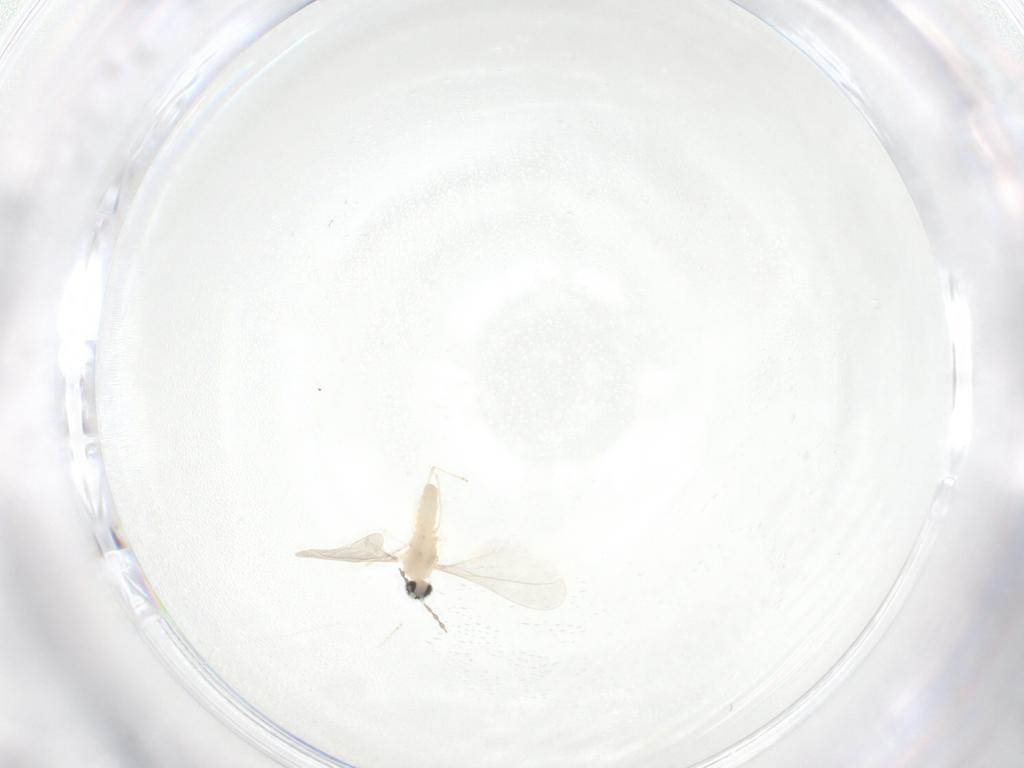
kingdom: Animalia
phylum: Arthropoda
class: Insecta
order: Diptera
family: Cecidomyiidae
